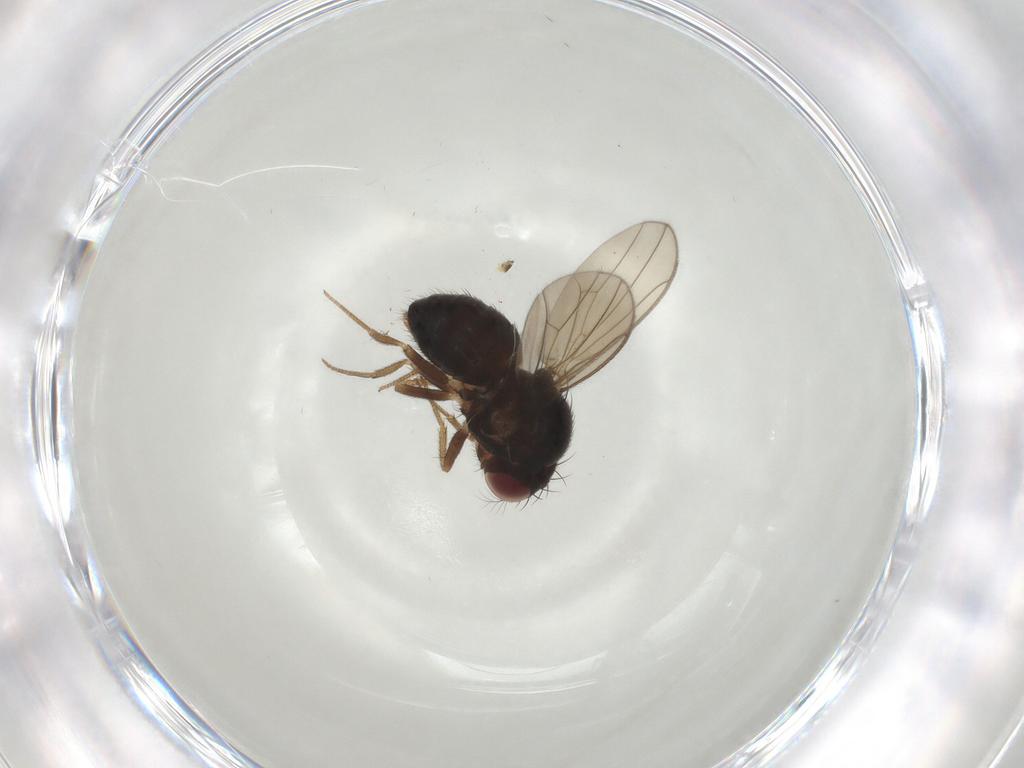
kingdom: Animalia
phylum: Arthropoda
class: Insecta
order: Diptera
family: Drosophilidae
